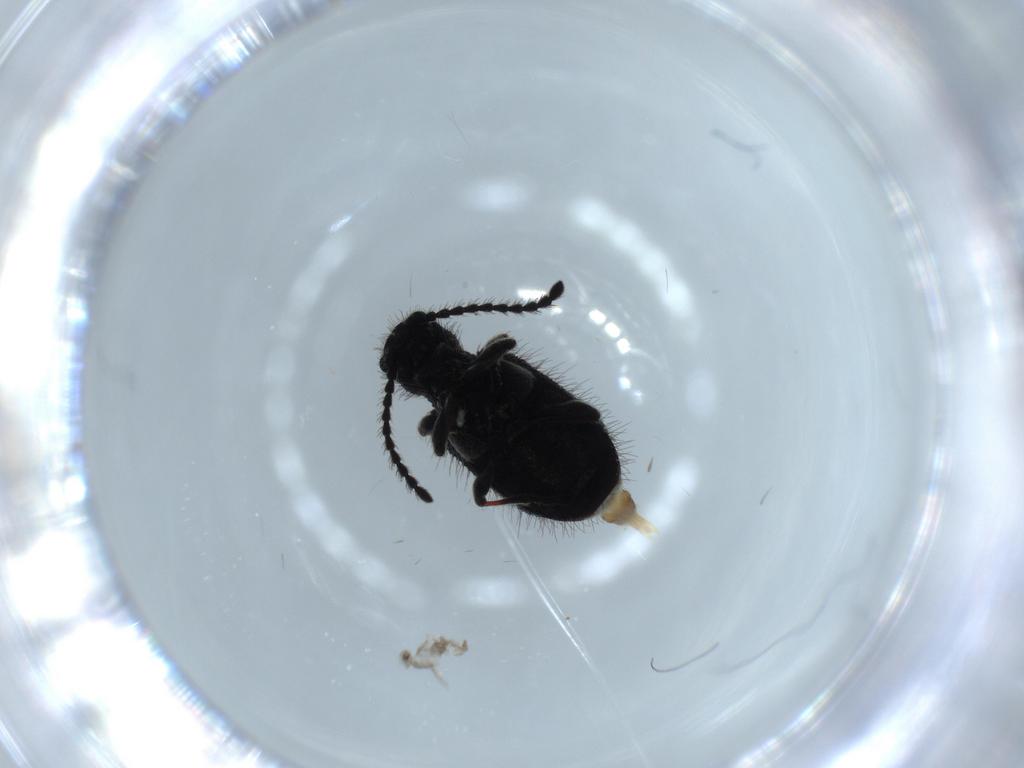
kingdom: Animalia
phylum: Arthropoda
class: Insecta
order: Coleoptera
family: Ptinidae
